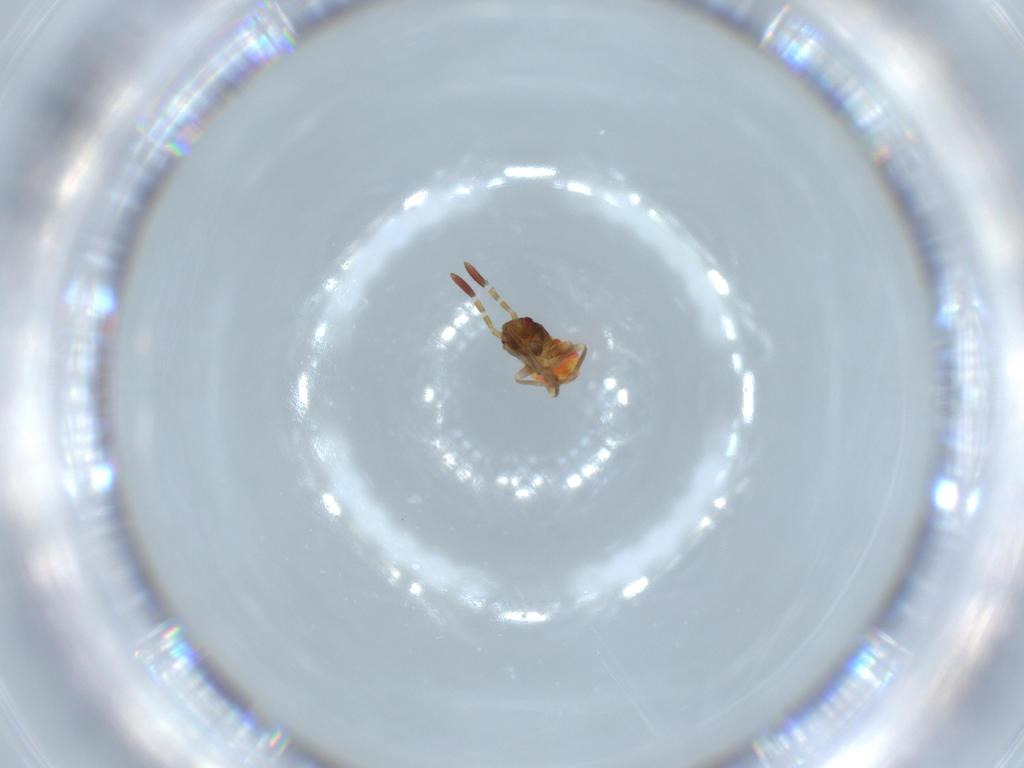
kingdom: Animalia
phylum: Arthropoda
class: Insecta
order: Hemiptera
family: Rhyparochromidae
